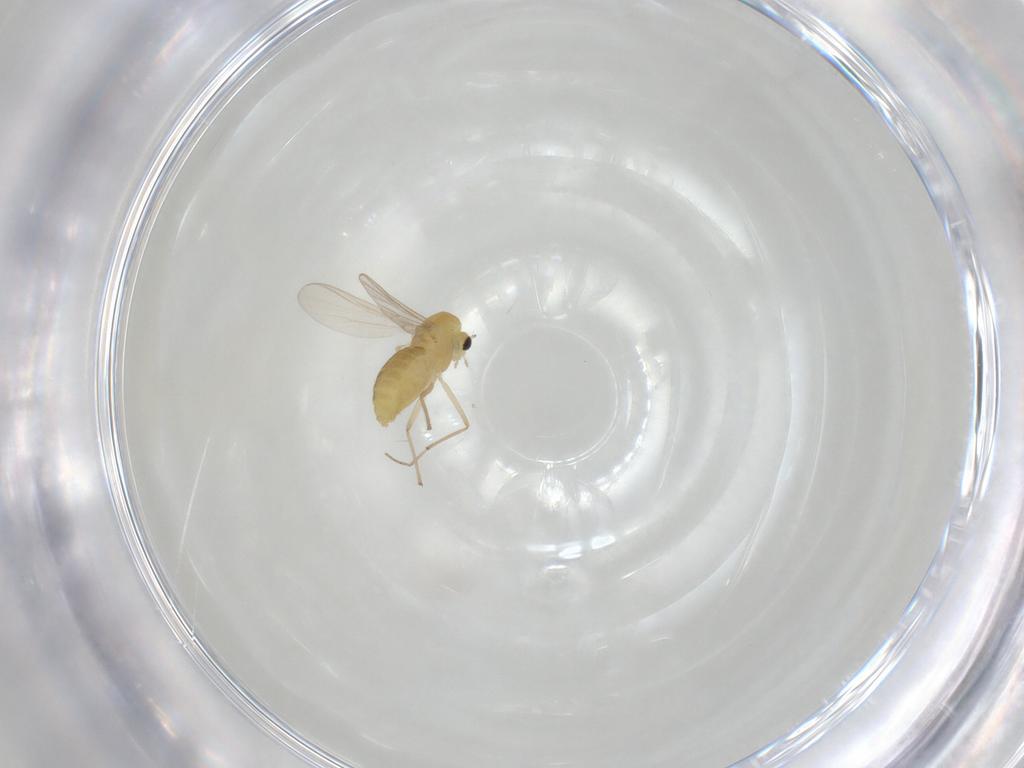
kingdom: Animalia
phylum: Arthropoda
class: Insecta
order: Diptera
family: Chironomidae
